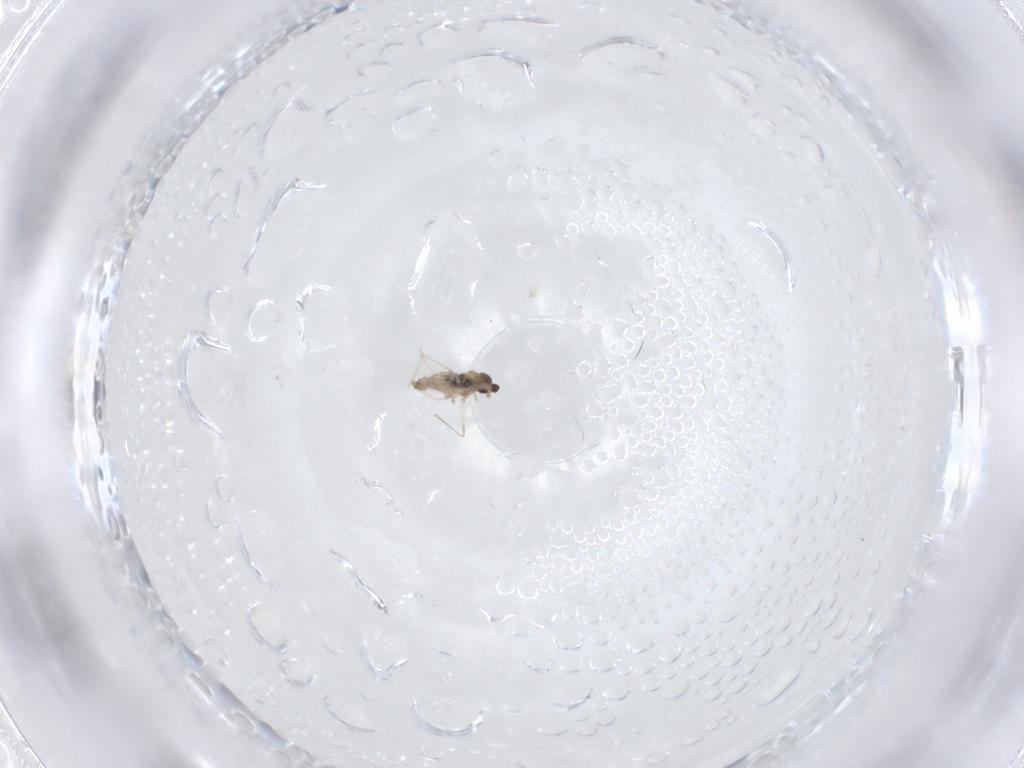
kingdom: Animalia
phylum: Arthropoda
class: Insecta
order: Diptera
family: Cecidomyiidae
